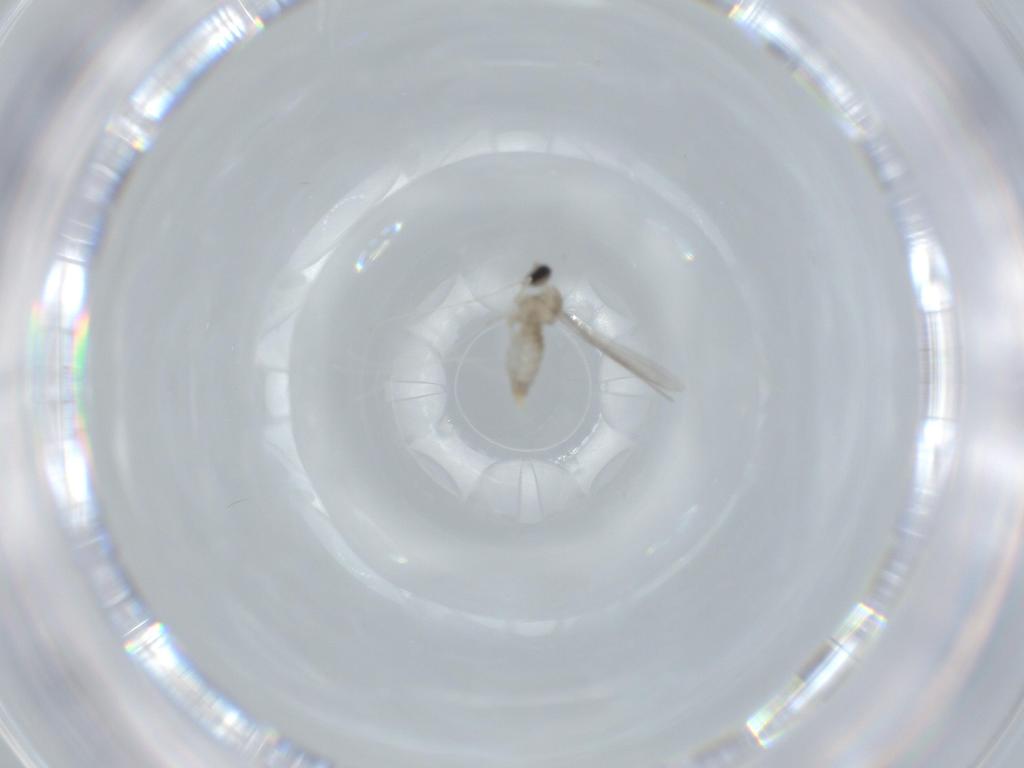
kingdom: Animalia
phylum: Arthropoda
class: Insecta
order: Diptera
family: Cecidomyiidae
